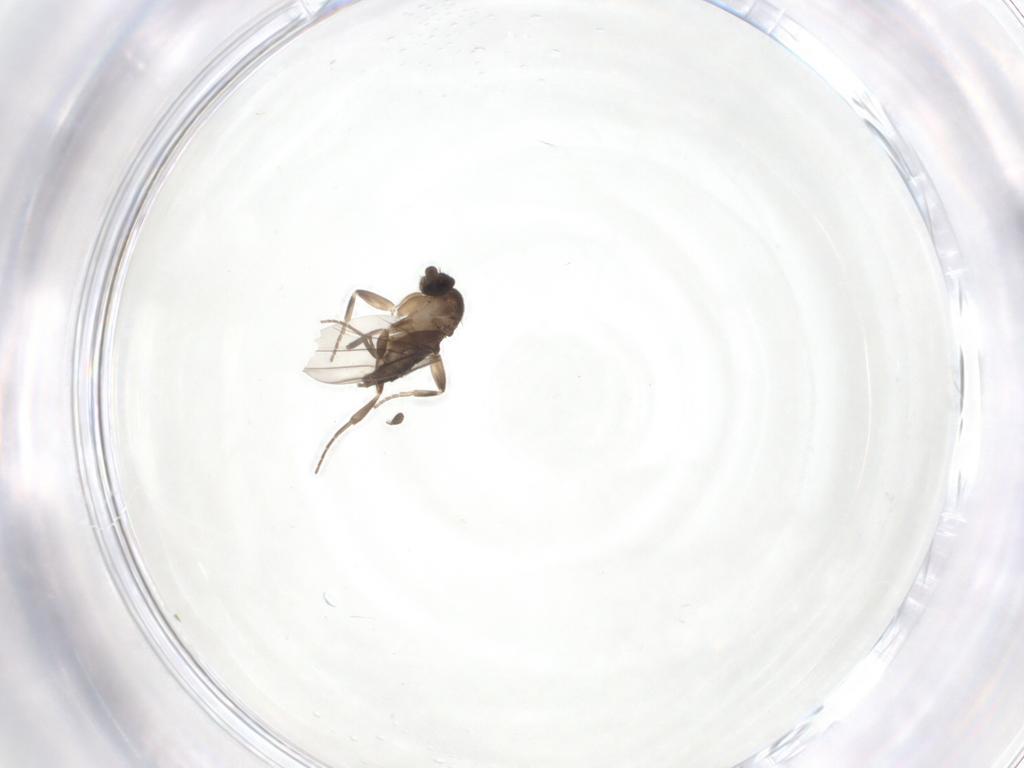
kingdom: Animalia
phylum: Arthropoda
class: Insecta
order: Diptera
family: Phoridae
